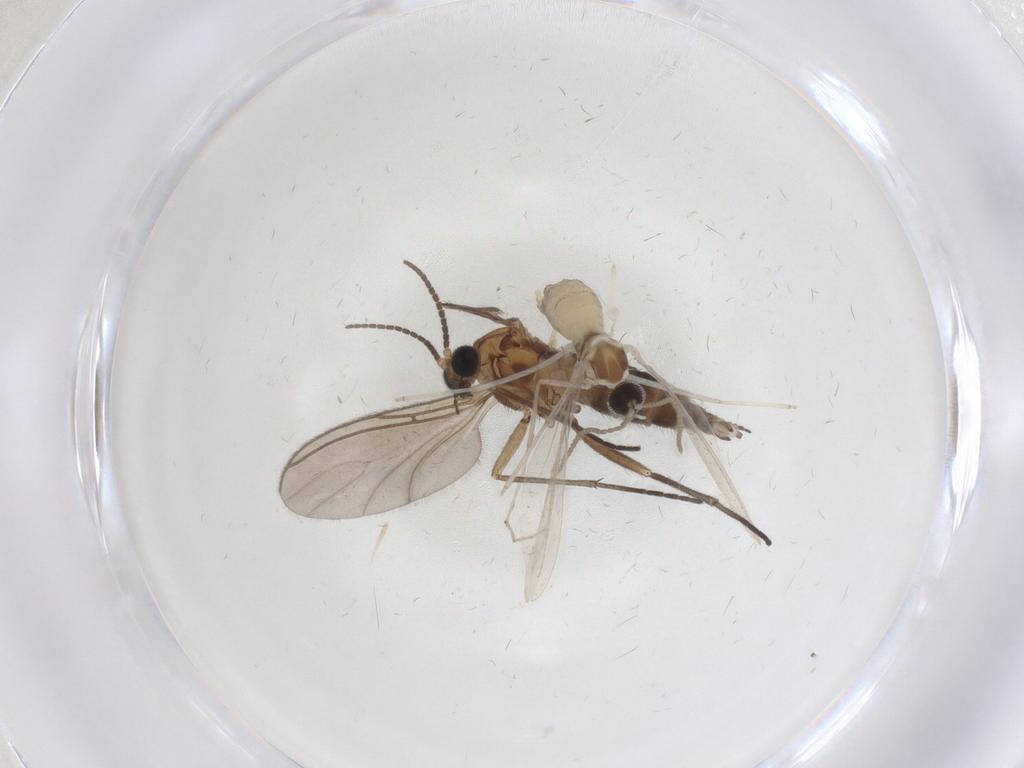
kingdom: Animalia
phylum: Arthropoda
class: Insecta
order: Diptera
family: Cecidomyiidae
